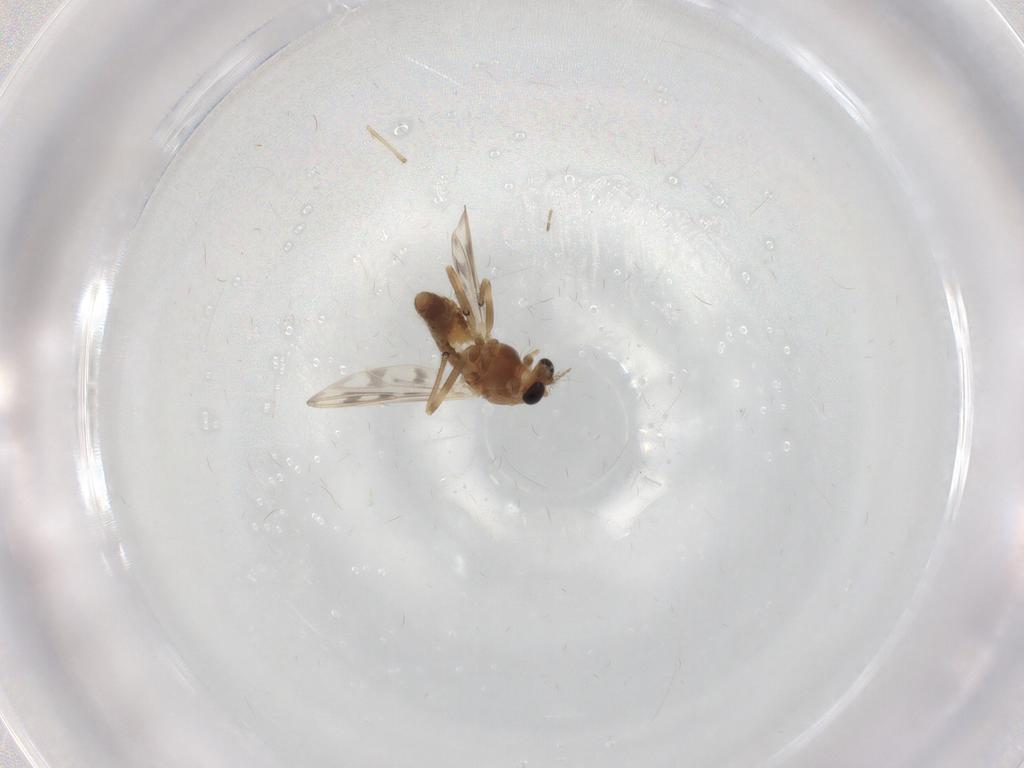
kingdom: Animalia
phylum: Arthropoda
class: Insecta
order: Diptera
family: Chironomidae
